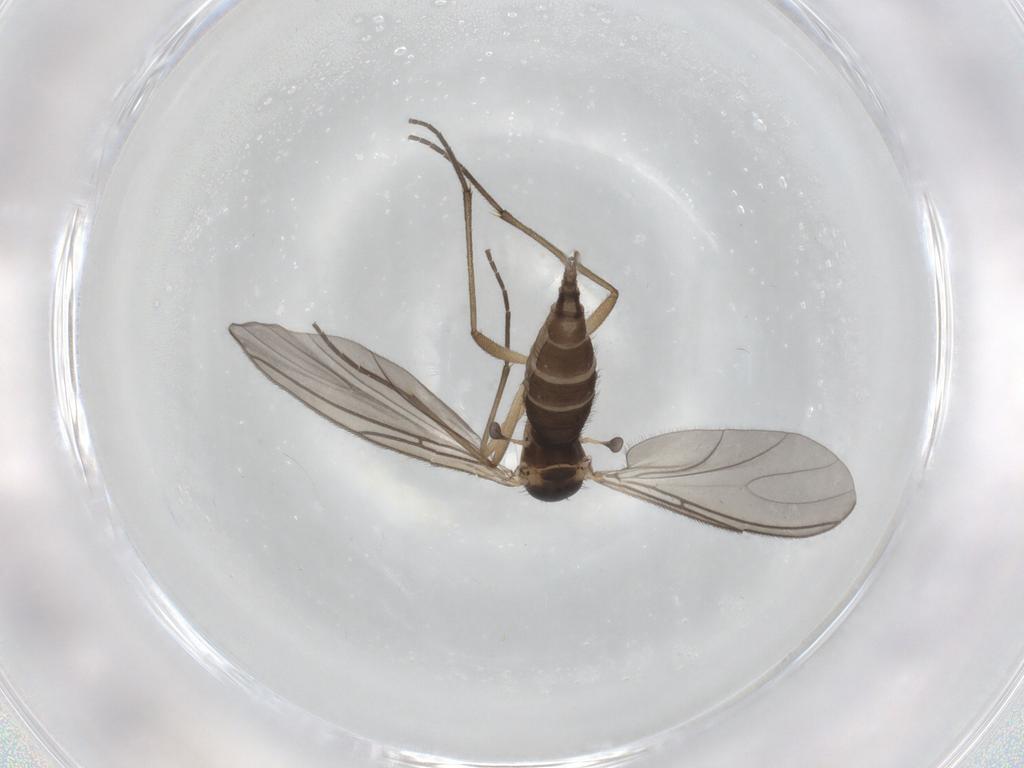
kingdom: Animalia
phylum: Arthropoda
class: Insecta
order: Diptera
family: Sciaridae
